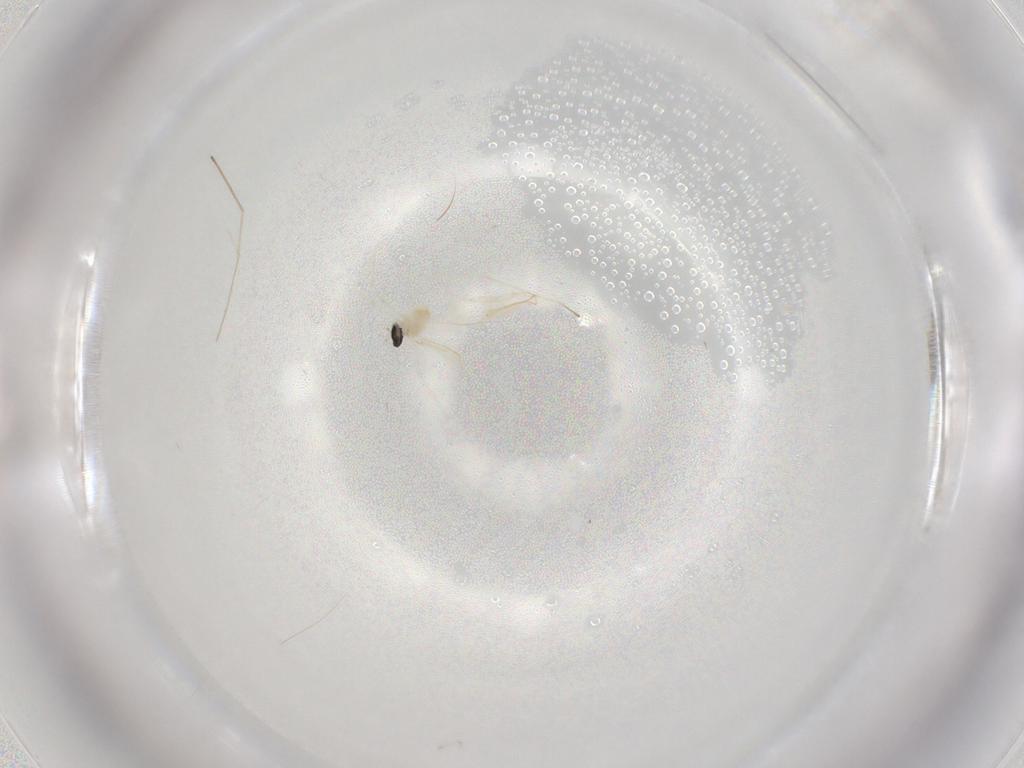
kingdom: Animalia
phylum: Arthropoda
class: Insecta
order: Diptera
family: Cecidomyiidae
